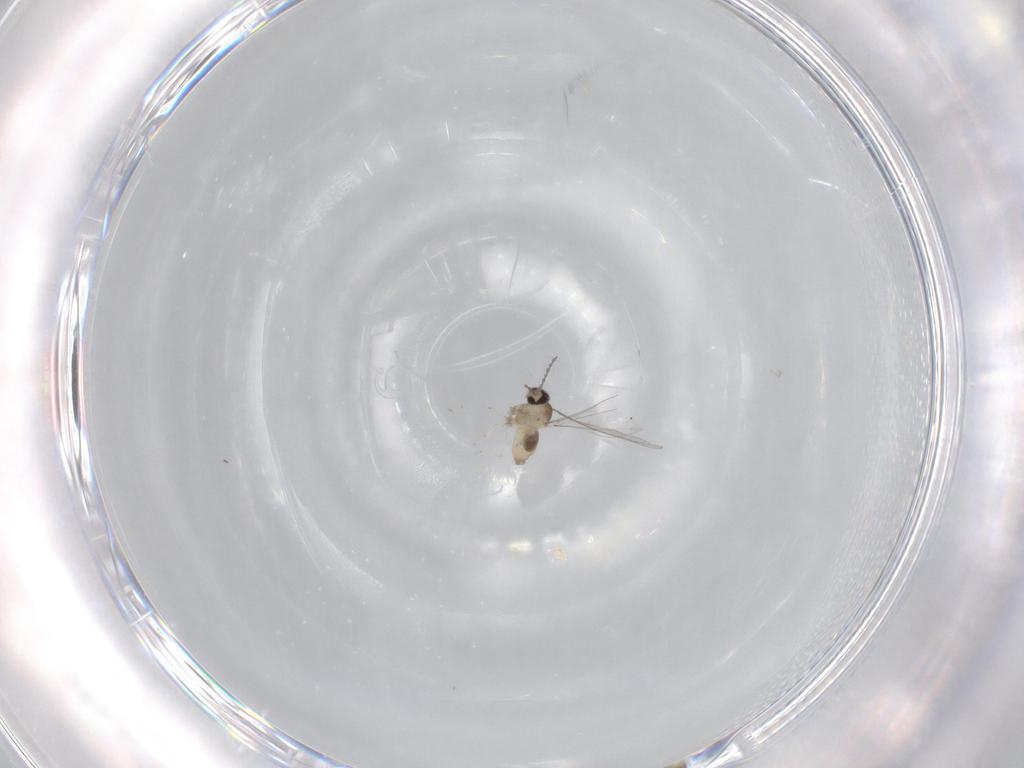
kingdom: Animalia
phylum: Arthropoda
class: Insecta
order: Diptera
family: Cecidomyiidae
